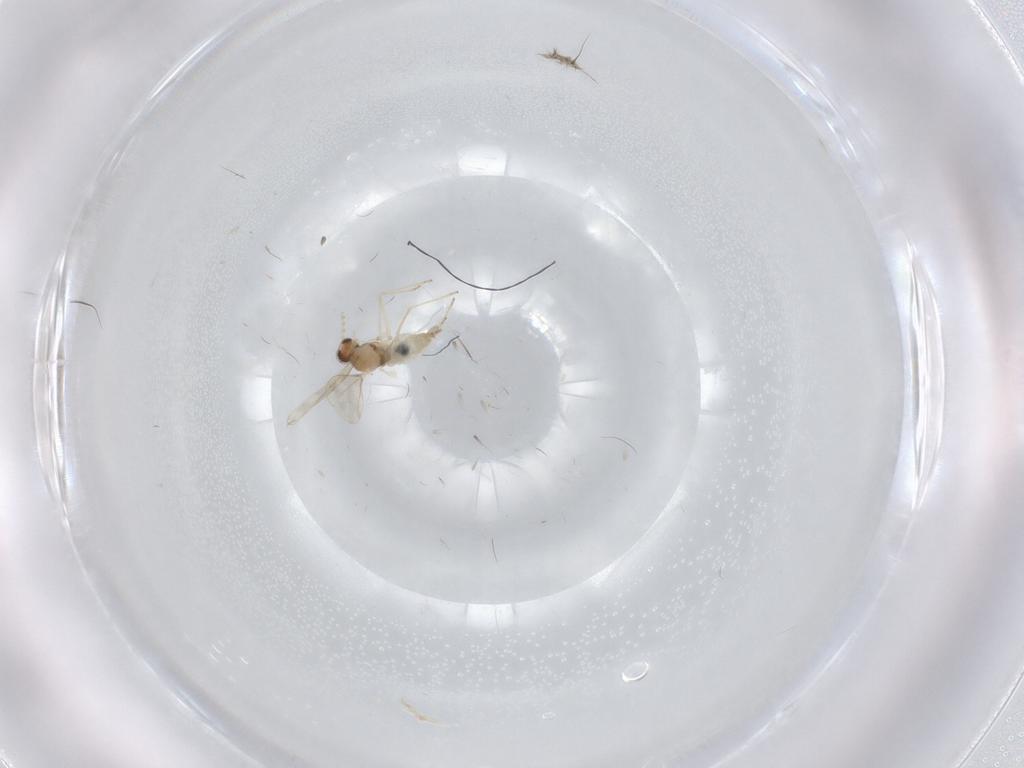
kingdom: Animalia
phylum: Arthropoda
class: Insecta
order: Diptera
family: Cecidomyiidae
